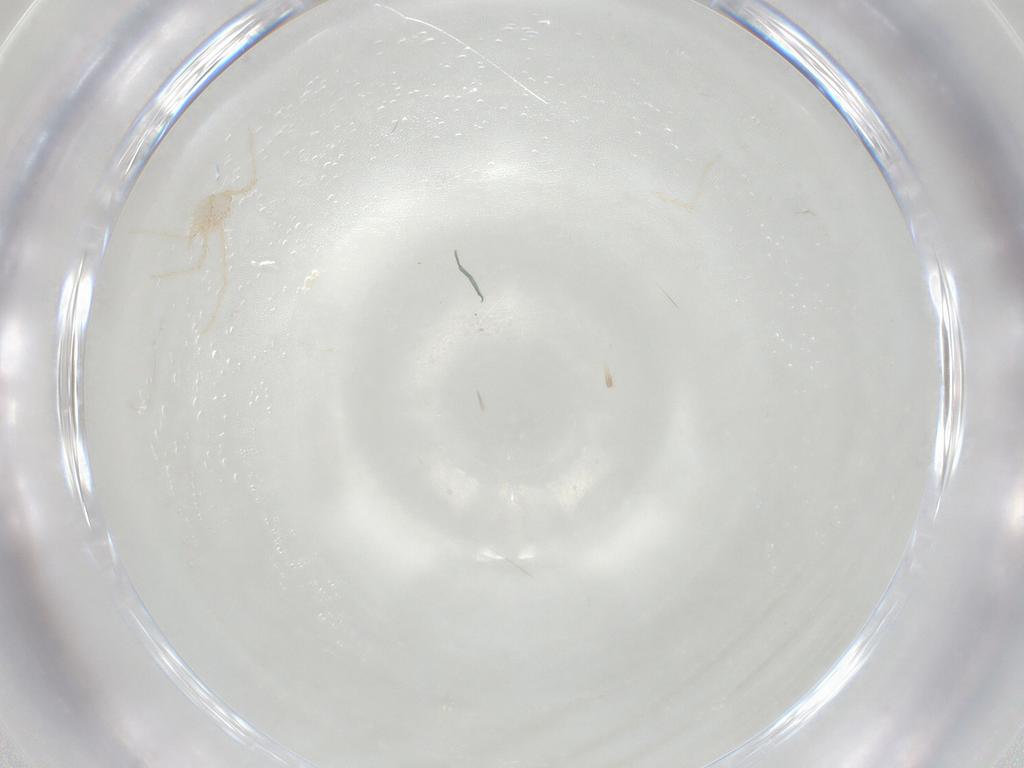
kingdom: Animalia
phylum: Arthropoda
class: Arachnida
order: Trombidiformes
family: Erythraeidae
